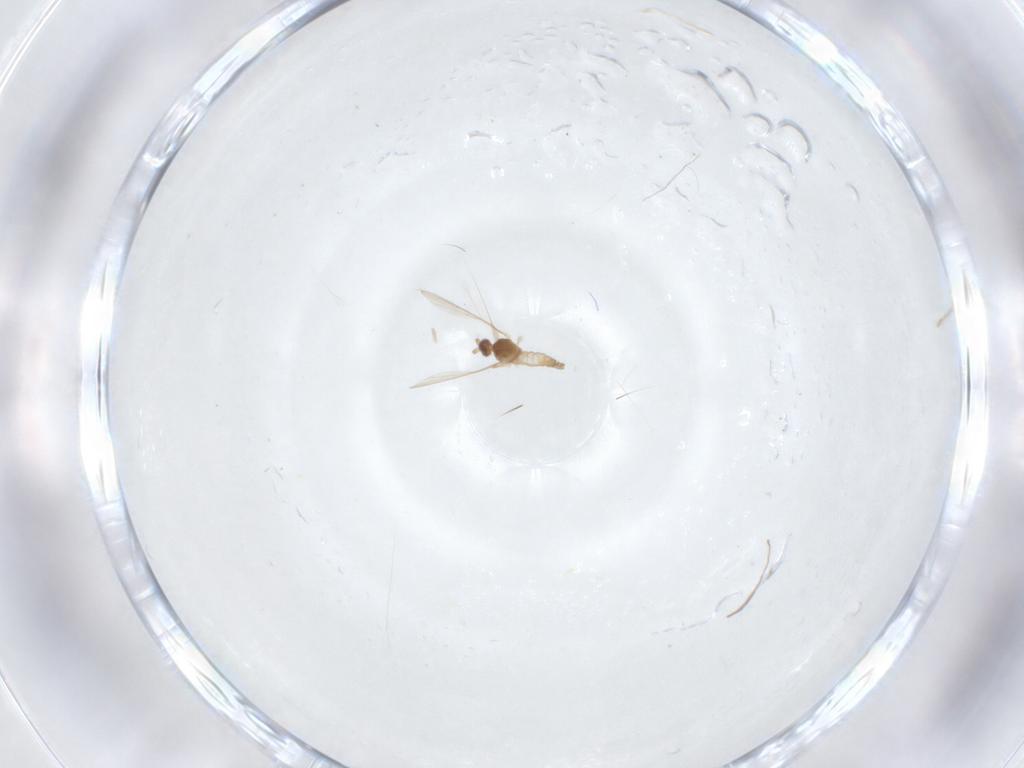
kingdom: Animalia
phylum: Arthropoda
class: Insecta
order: Diptera
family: Cecidomyiidae
